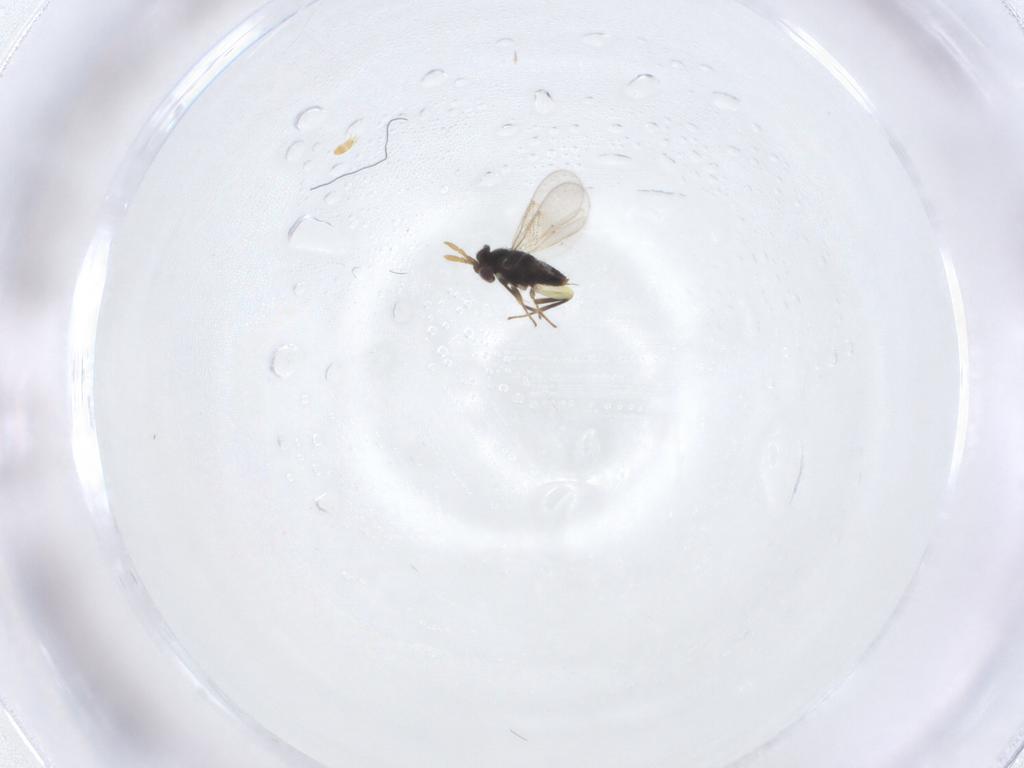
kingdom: Animalia
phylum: Arthropoda
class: Insecta
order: Hymenoptera
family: Aphelinidae
